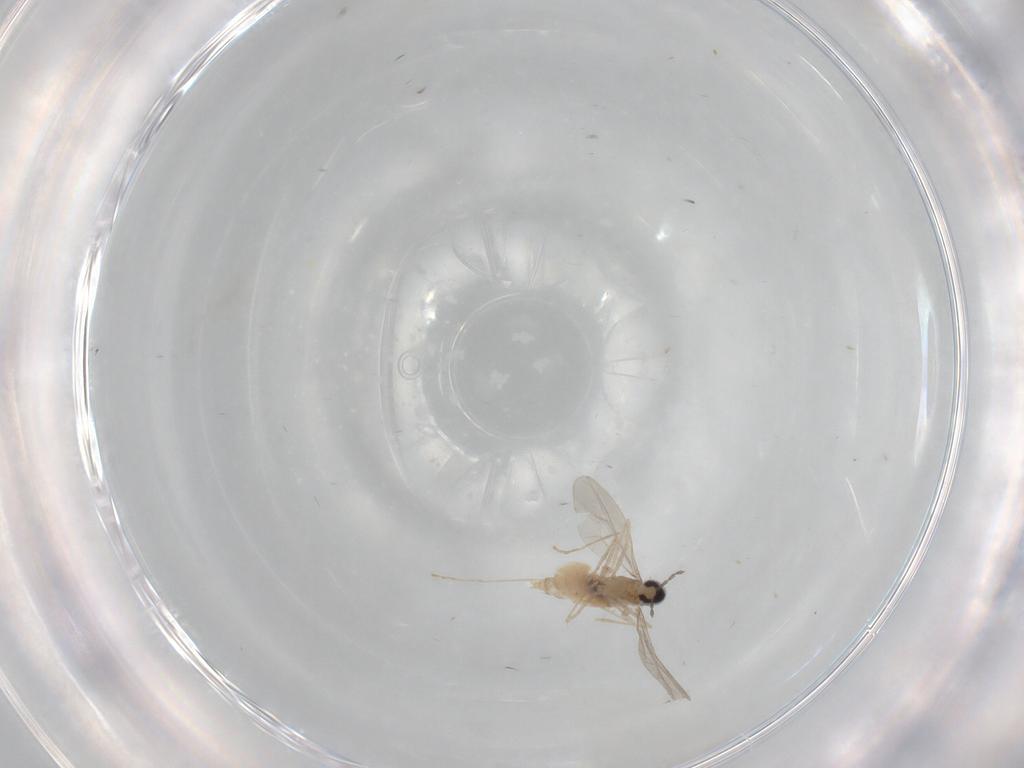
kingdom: Animalia
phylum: Arthropoda
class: Insecta
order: Diptera
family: Cecidomyiidae
